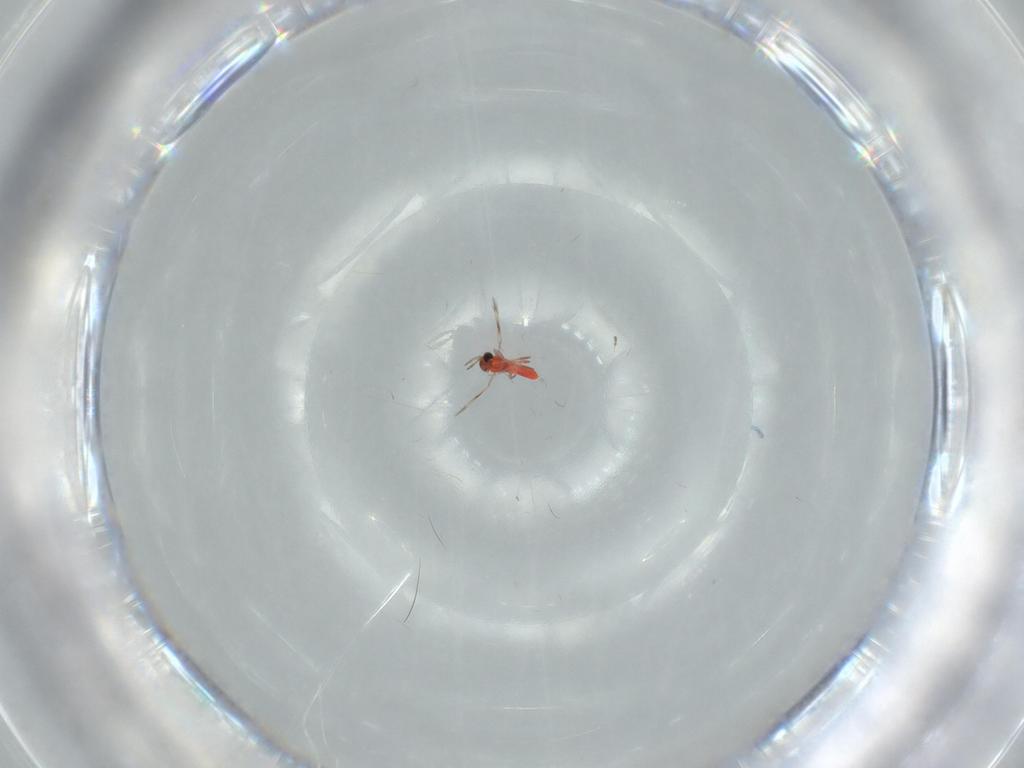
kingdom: Animalia
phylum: Arthropoda
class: Insecta
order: Hymenoptera
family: Trichogrammatidae
